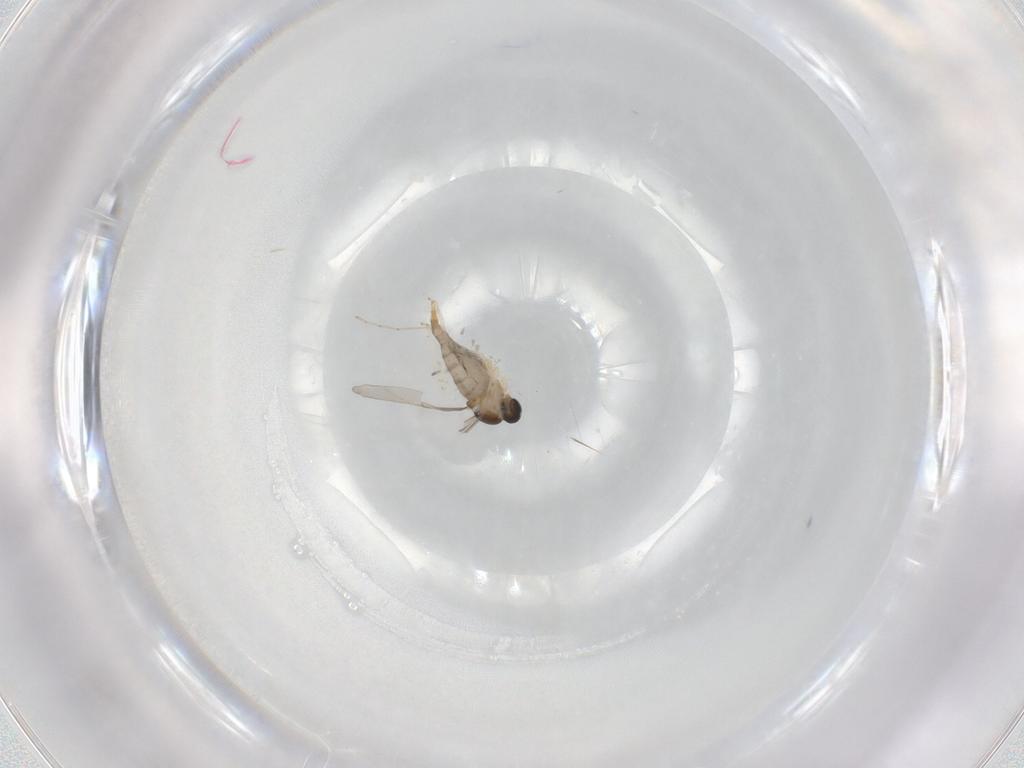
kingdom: Animalia
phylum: Arthropoda
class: Insecta
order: Diptera
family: Cecidomyiidae
